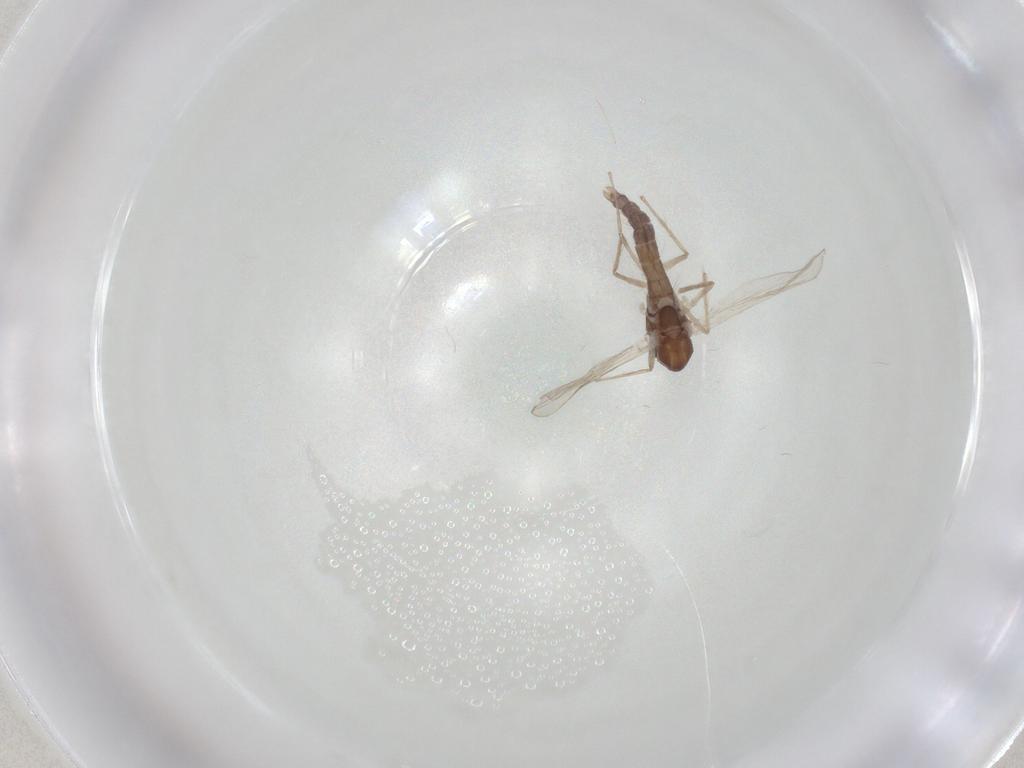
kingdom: Animalia
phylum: Arthropoda
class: Insecta
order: Diptera
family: Chironomidae
